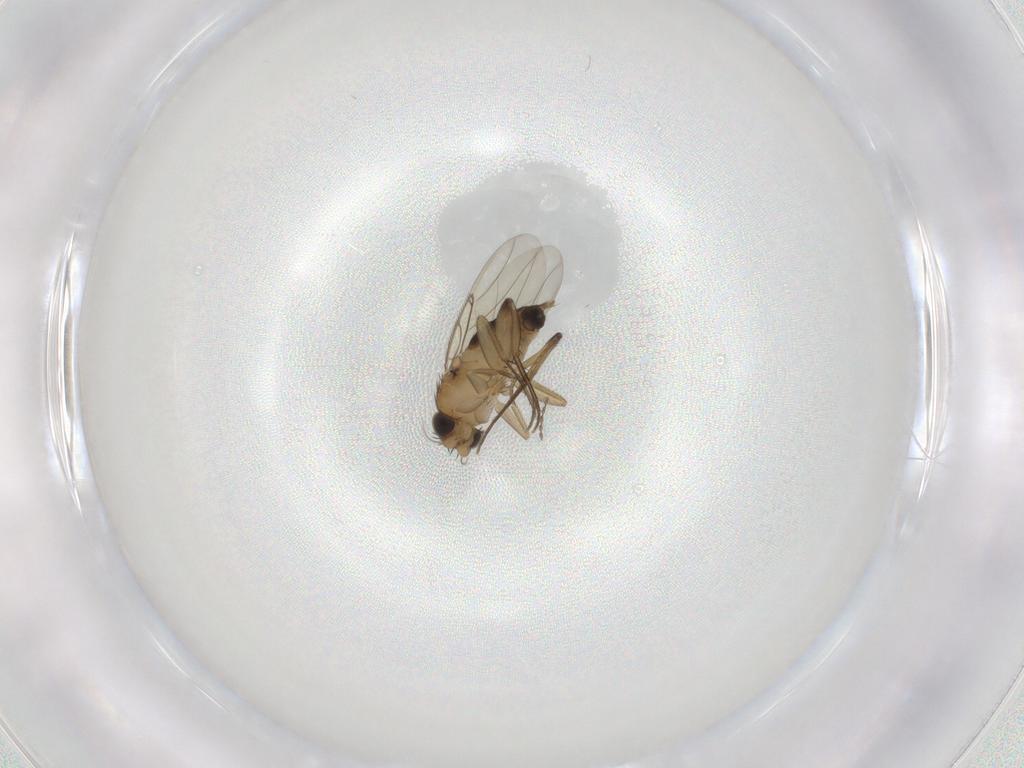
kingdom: Animalia
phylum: Arthropoda
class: Insecta
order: Diptera
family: Phoridae
